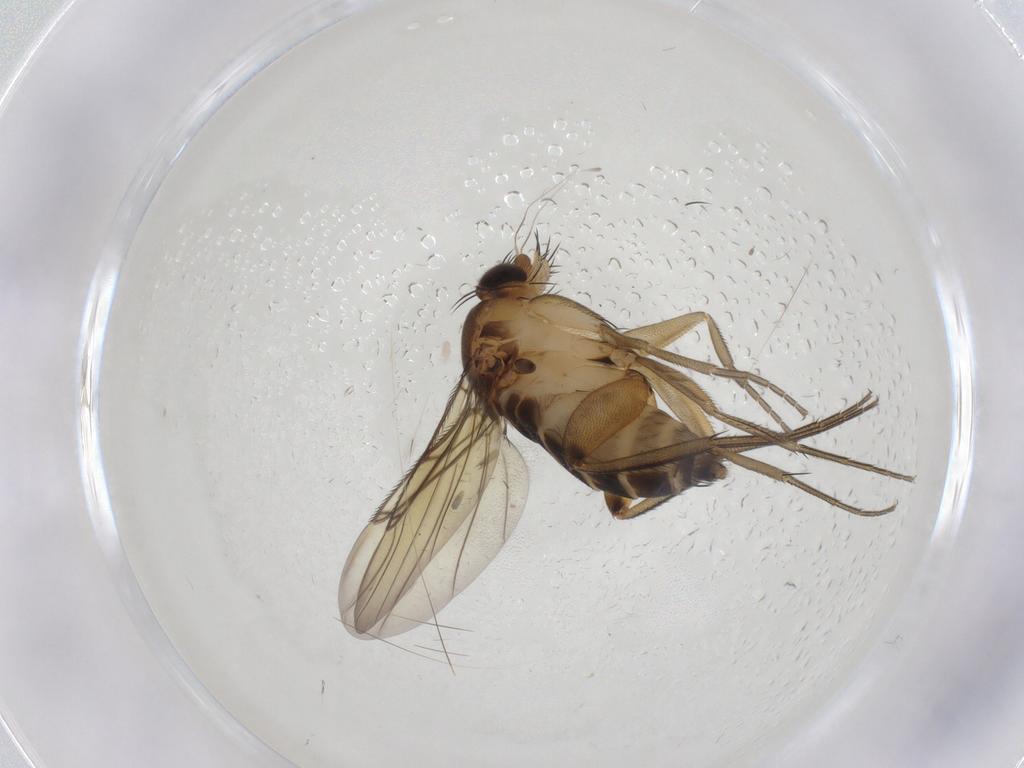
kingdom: Animalia
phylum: Arthropoda
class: Insecta
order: Diptera
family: Phoridae
